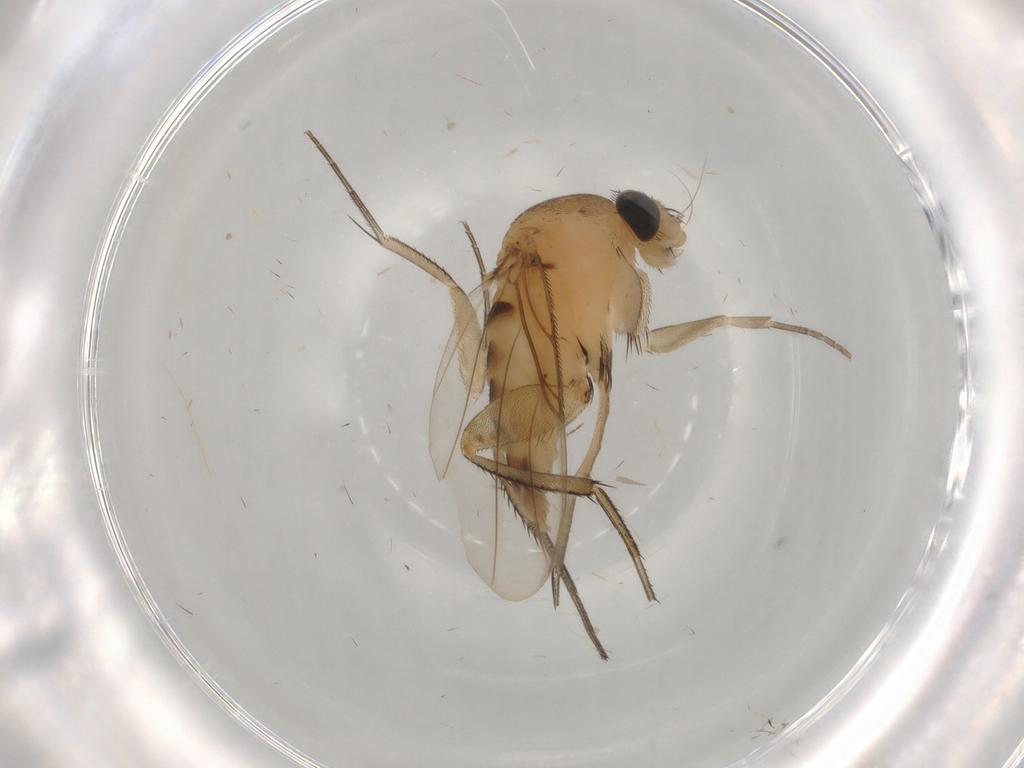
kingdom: Animalia
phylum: Arthropoda
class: Insecta
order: Diptera
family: Phoridae
